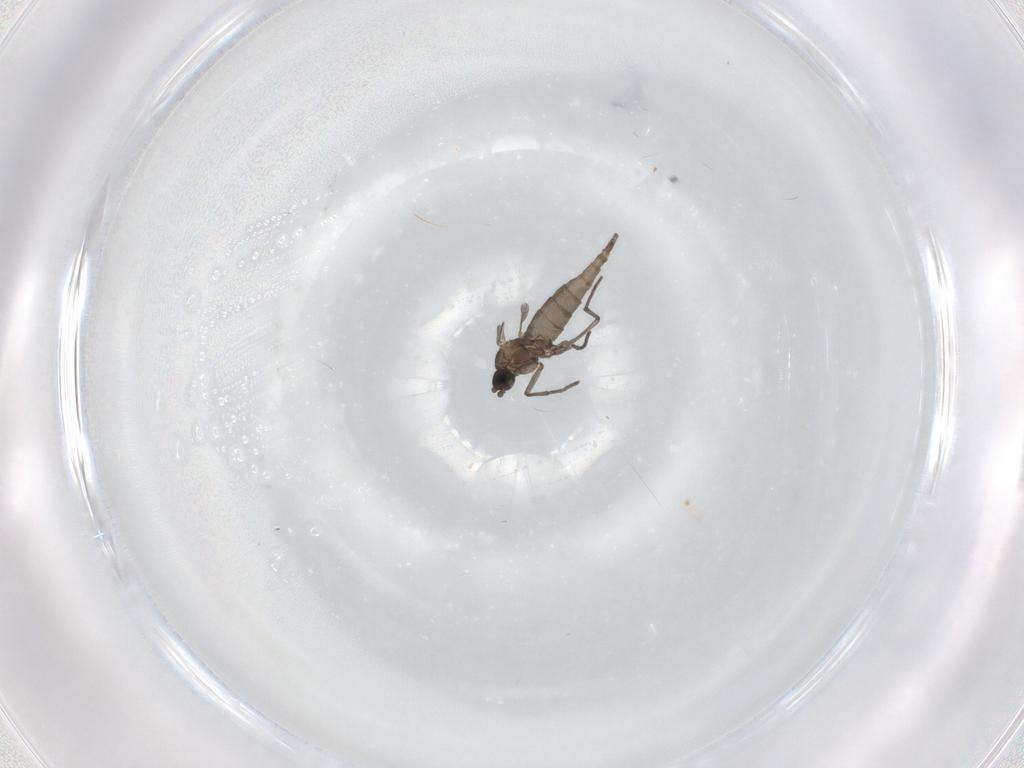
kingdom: Animalia
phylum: Arthropoda
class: Insecta
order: Diptera
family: Sciaridae
